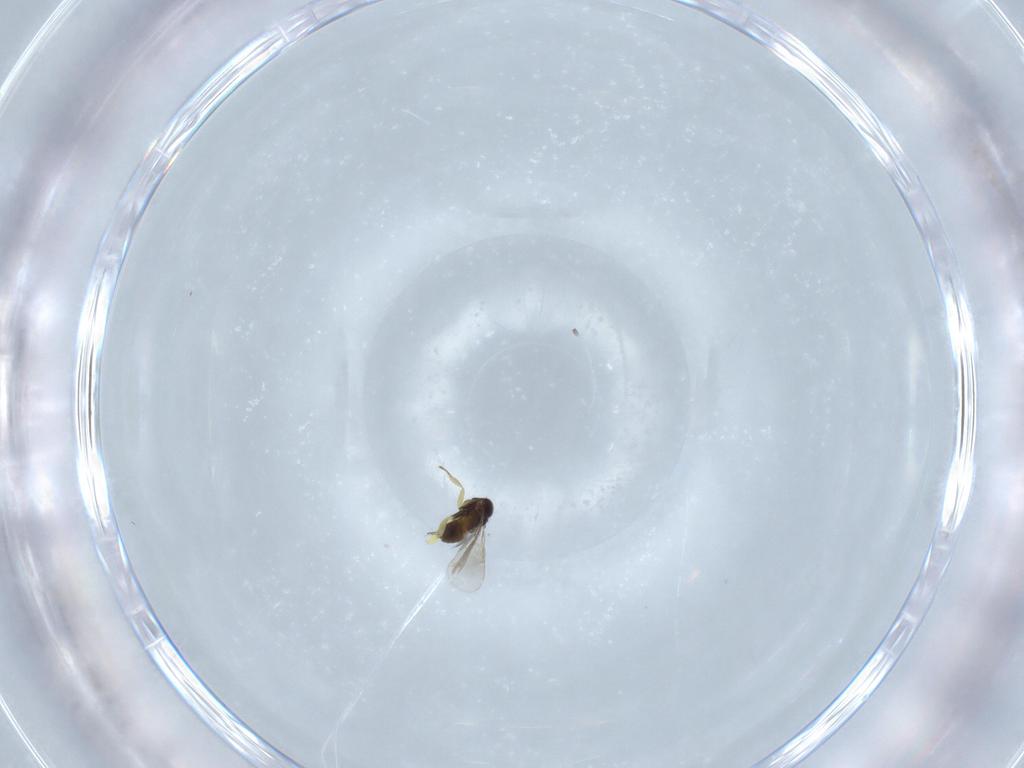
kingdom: Animalia
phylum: Arthropoda
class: Insecta
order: Hymenoptera
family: Aphelinidae
